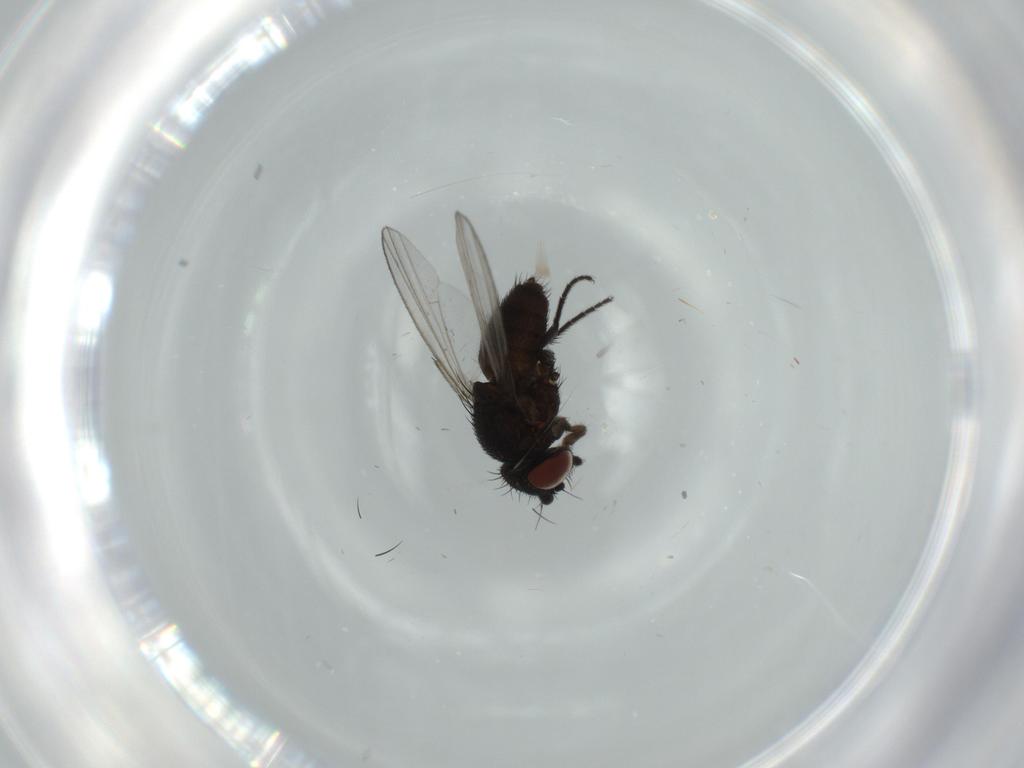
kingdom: Animalia
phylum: Arthropoda
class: Insecta
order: Diptera
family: Milichiidae
